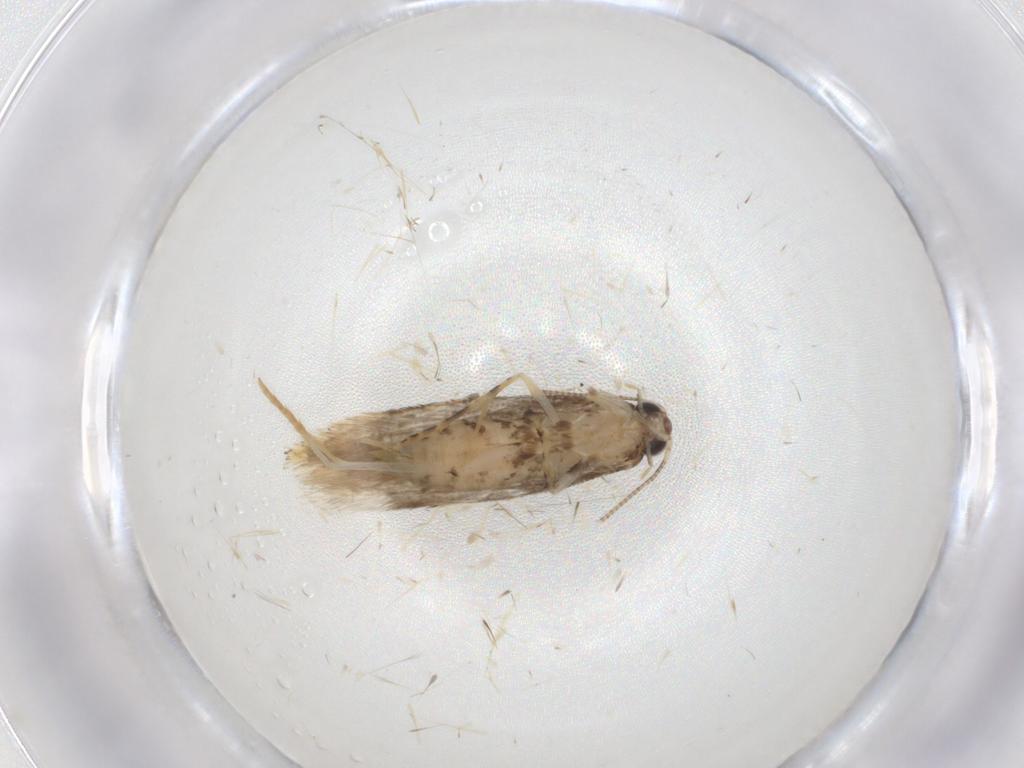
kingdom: Animalia
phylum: Arthropoda
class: Insecta
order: Lepidoptera
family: Tineidae
